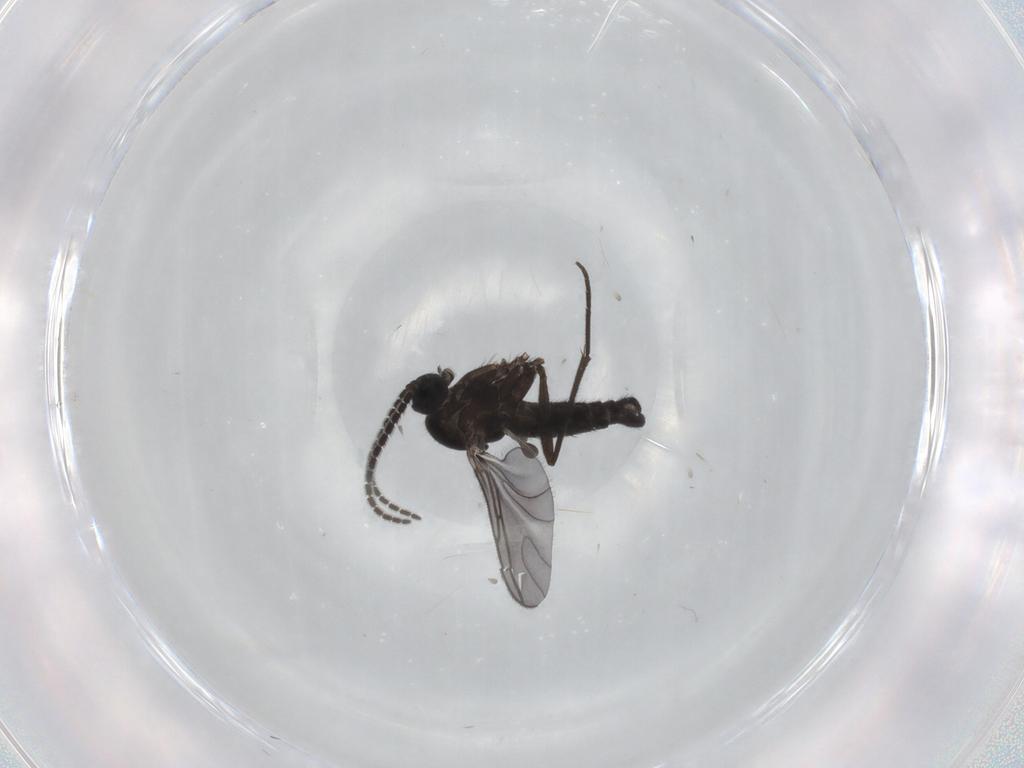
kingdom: Animalia
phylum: Arthropoda
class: Insecta
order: Diptera
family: Sciaridae
